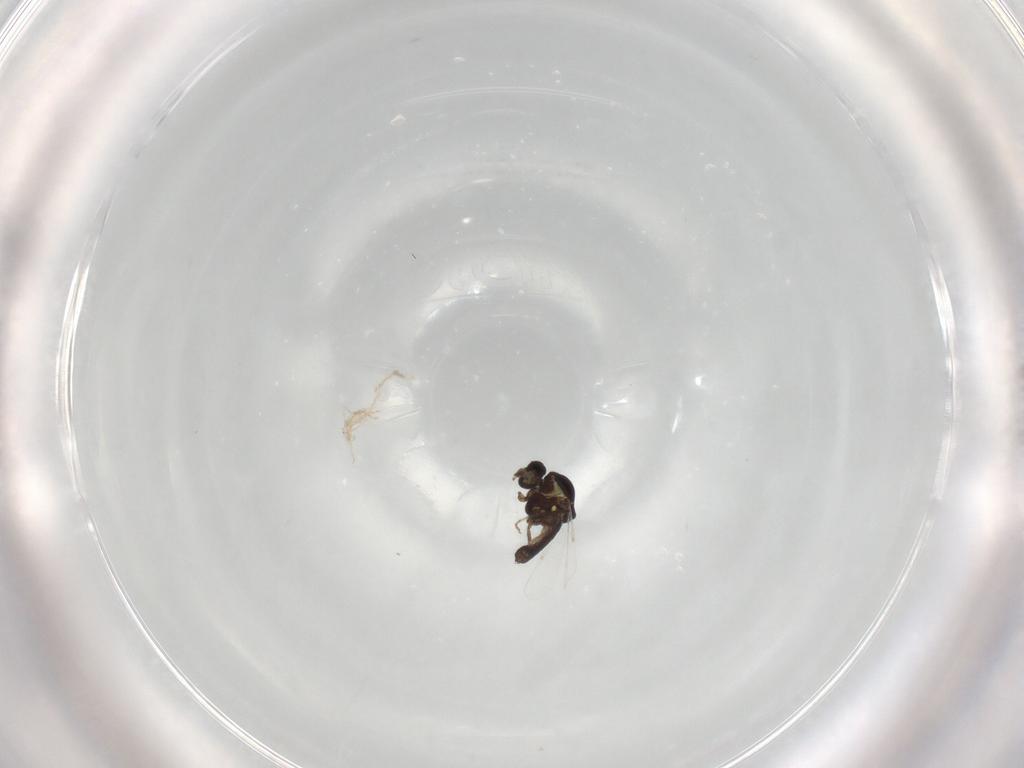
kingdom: Animalia
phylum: Arthropoda
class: Insecta
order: Diptera
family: Ceratopogonidae
